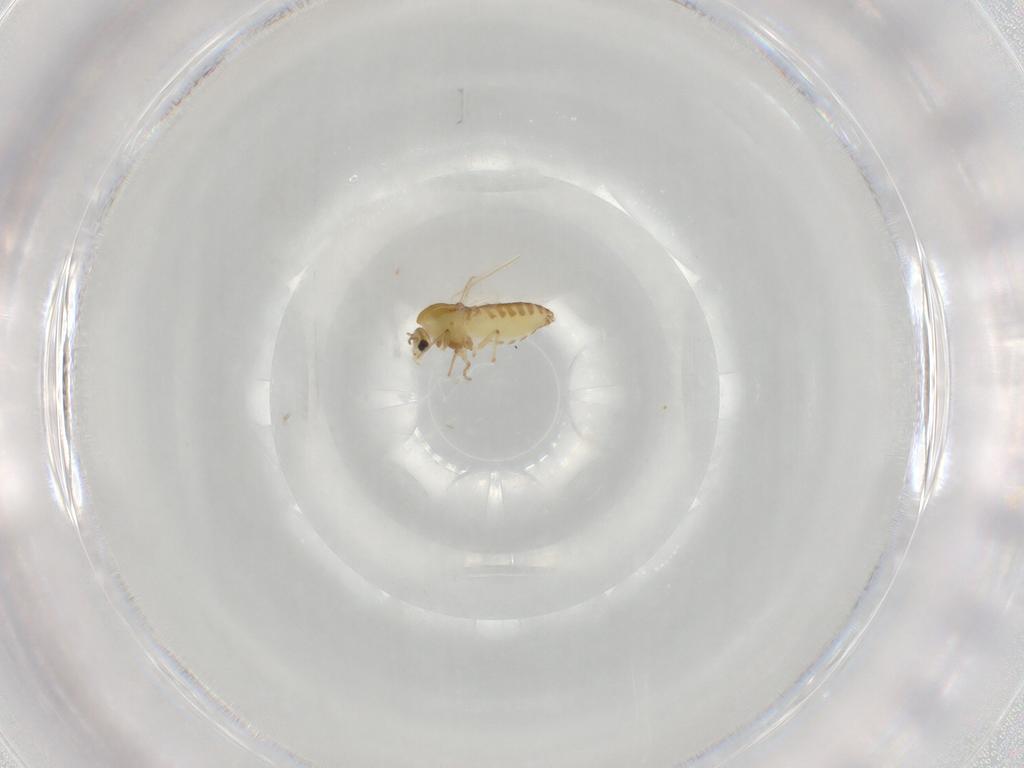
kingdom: Animalia
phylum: Arthropoda
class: Insecta
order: Diptera
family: Chironomidae
